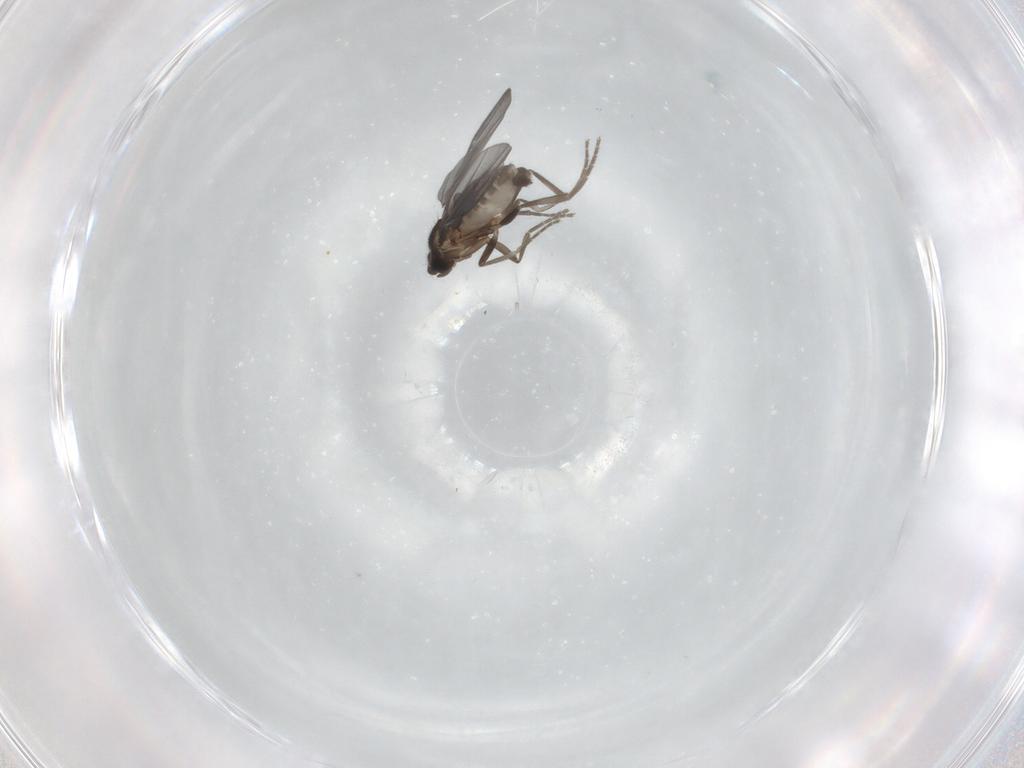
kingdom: Animalia
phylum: Arthropoda
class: Insecta
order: Diptera
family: Phoridae
